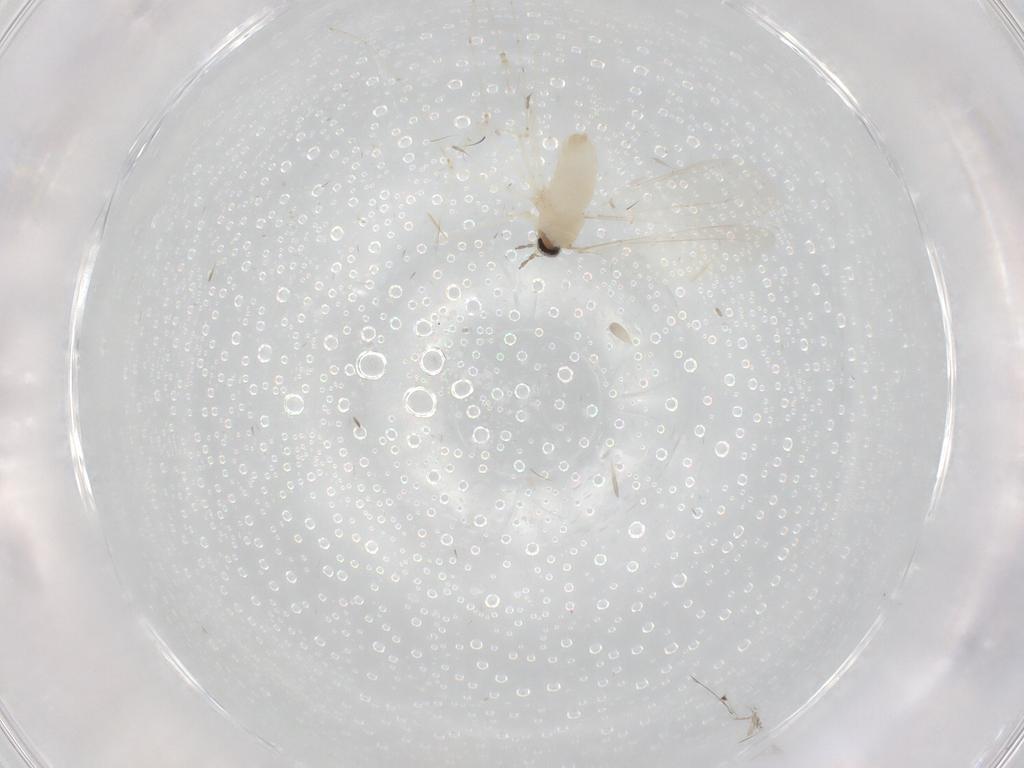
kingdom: Animalia
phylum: Arthropoda
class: Insecta
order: Diptera
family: Cecidomyiidae
